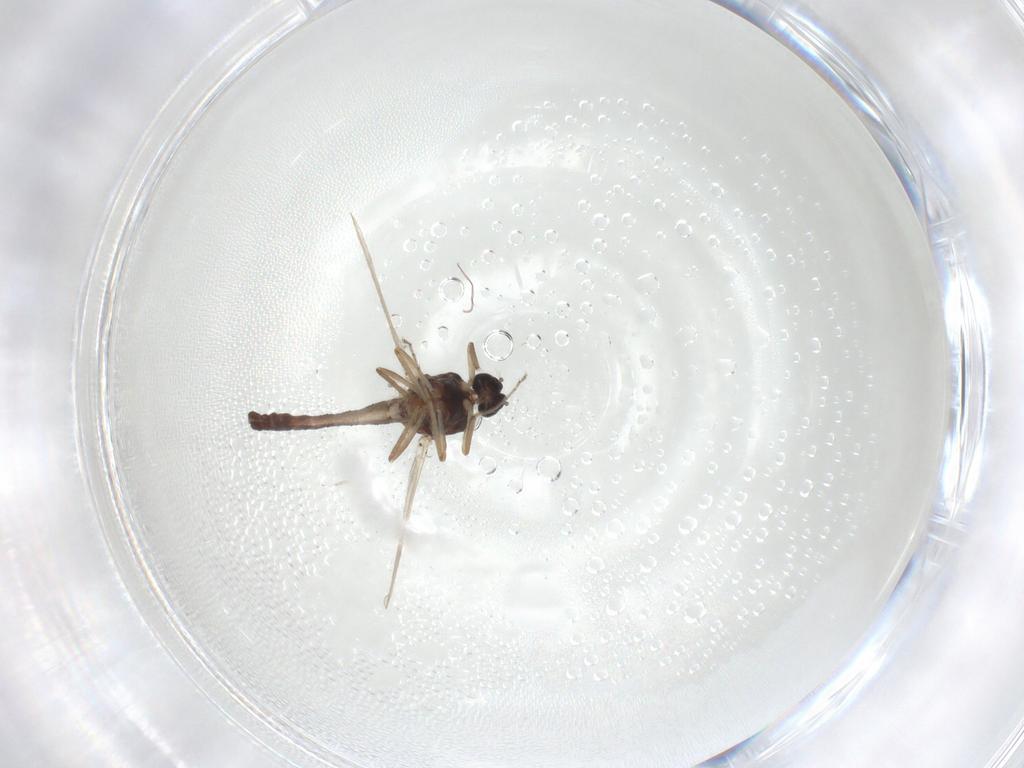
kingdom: Animalia
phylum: Arthropoda
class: Insecta
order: Diptera
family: Ceratopogonidae
